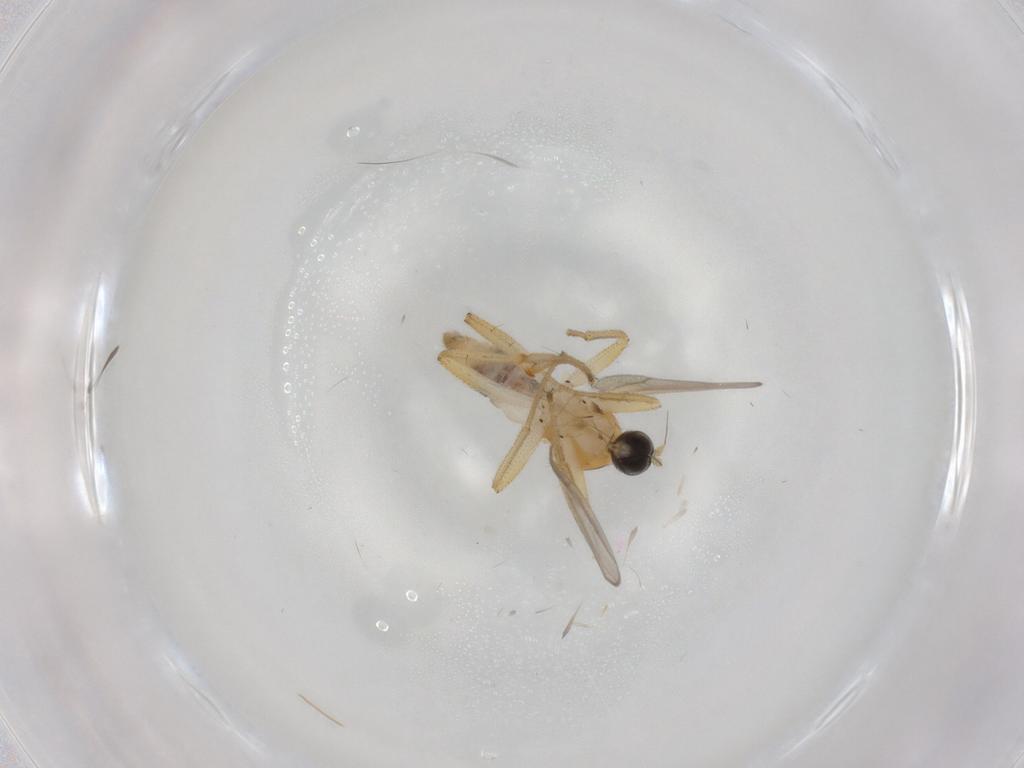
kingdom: Animalia
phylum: Arthropoda
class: Insecta
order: Diptera
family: Hybotidae
